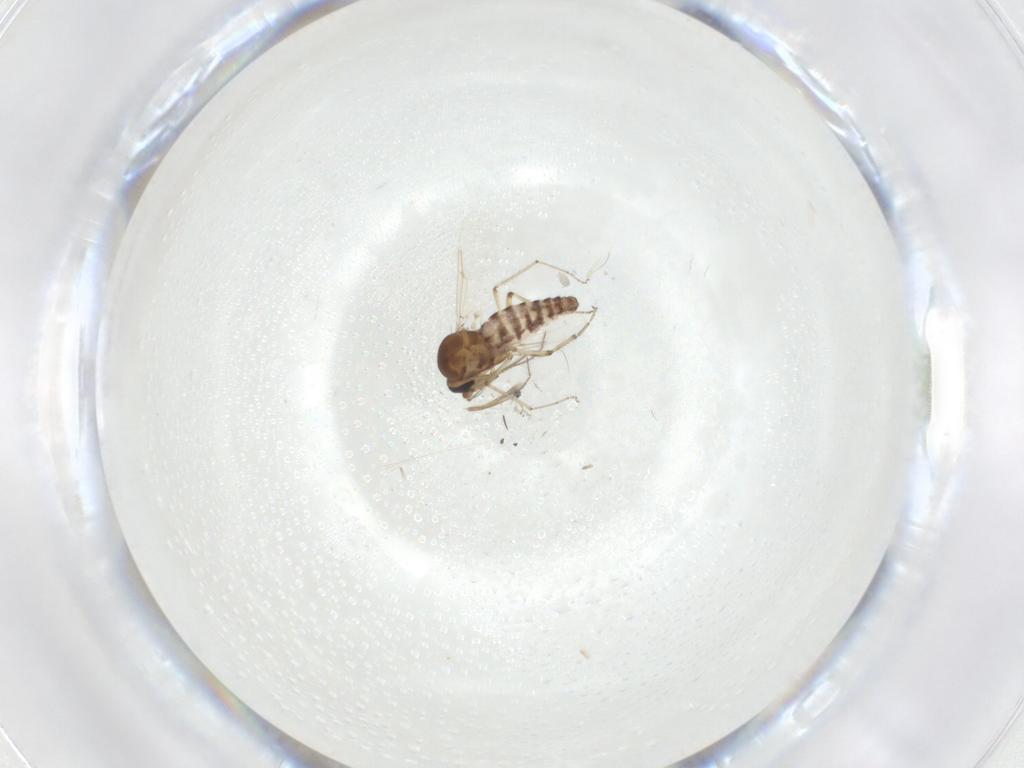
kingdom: Animalia
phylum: Arthropoda
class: Insecta
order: Diptera
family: Ceratopogonidae
